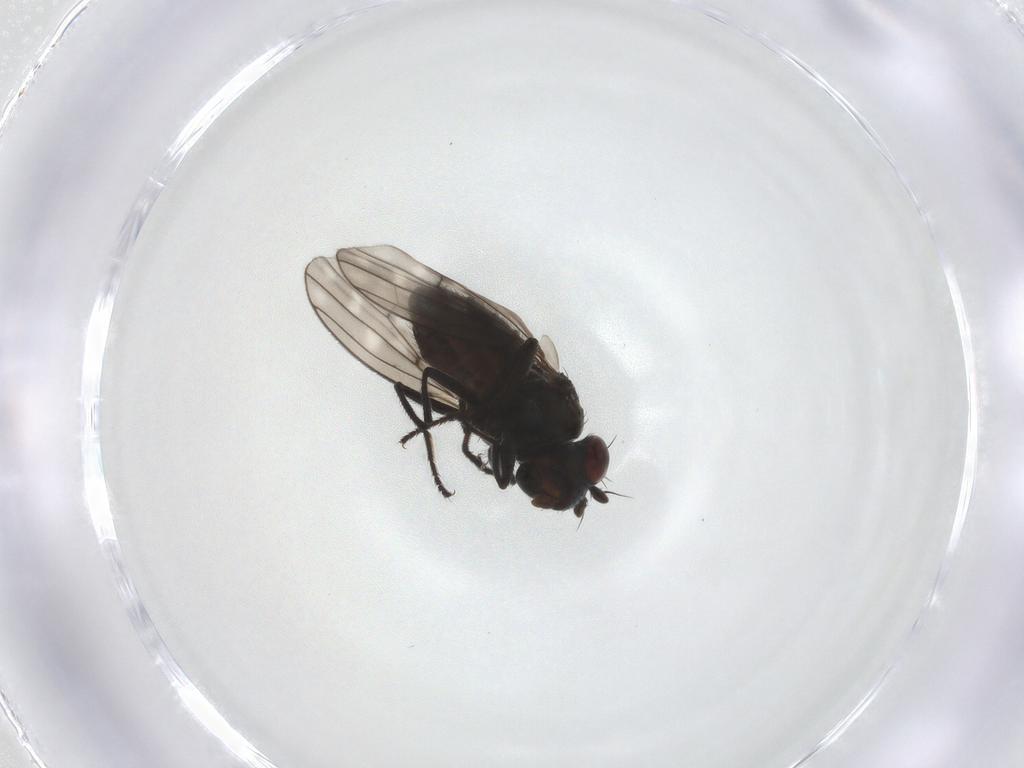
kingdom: Animalia
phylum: Arthropoda
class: Insecta
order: Diptera
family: Ephydridae
